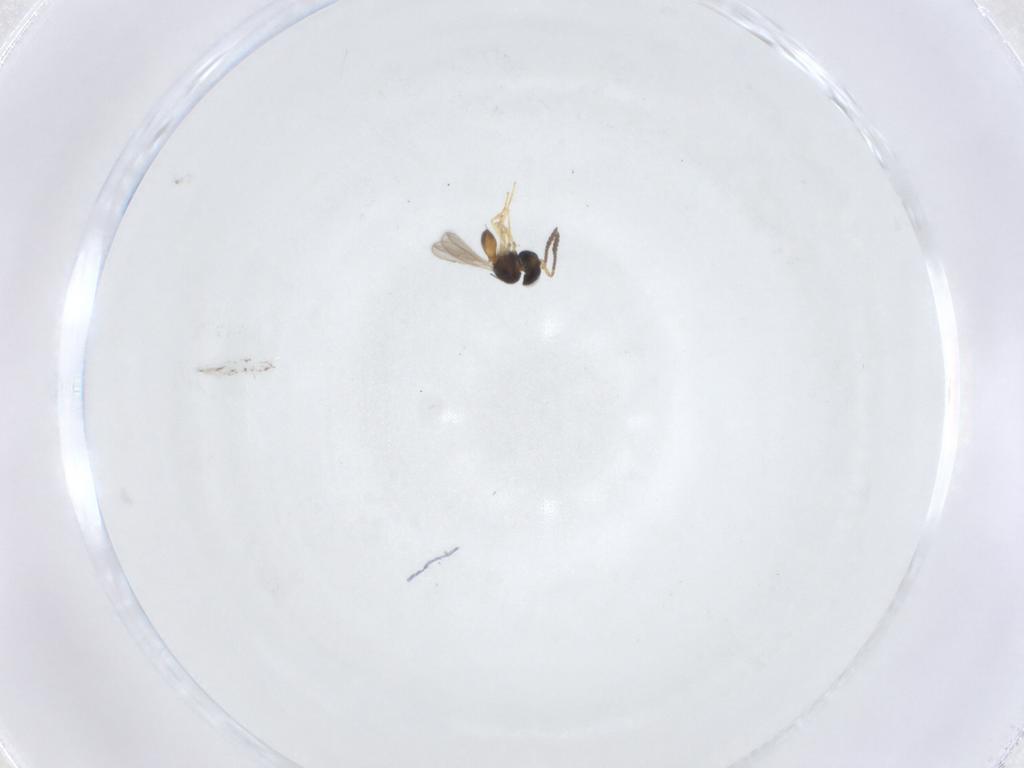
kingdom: Animalia
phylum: Arthropoda
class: Insecta
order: Hymenoptera
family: Scelionidae
